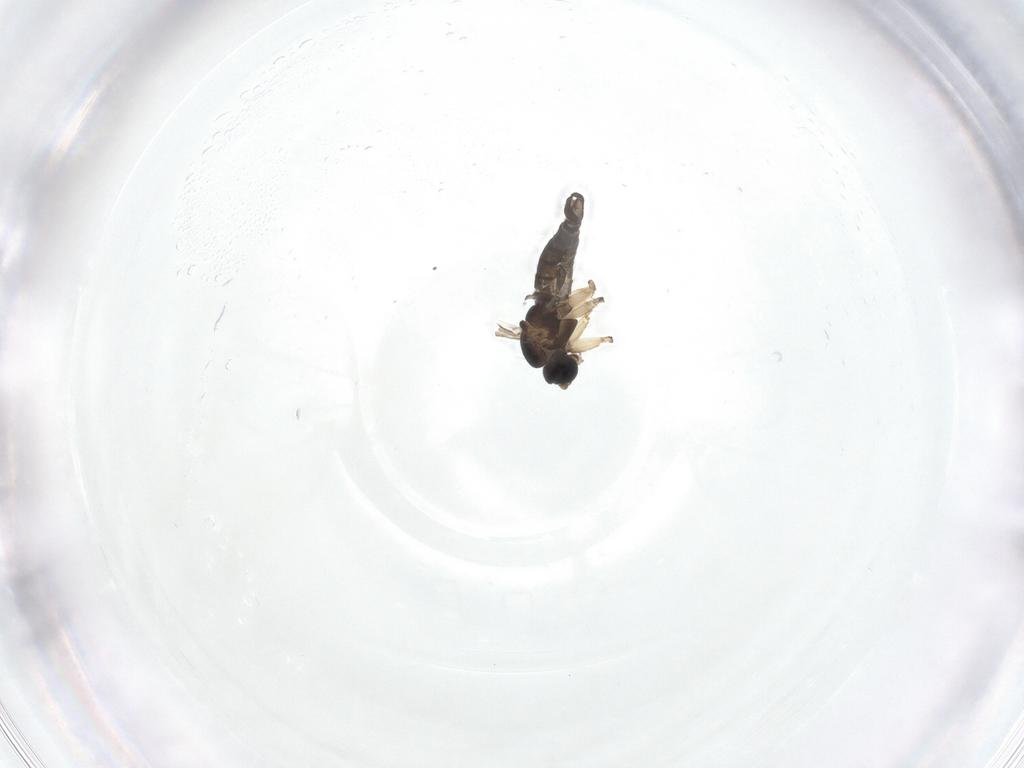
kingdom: Animalia
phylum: Arthropoda
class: Insecta
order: Diptera
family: Sciaridae
